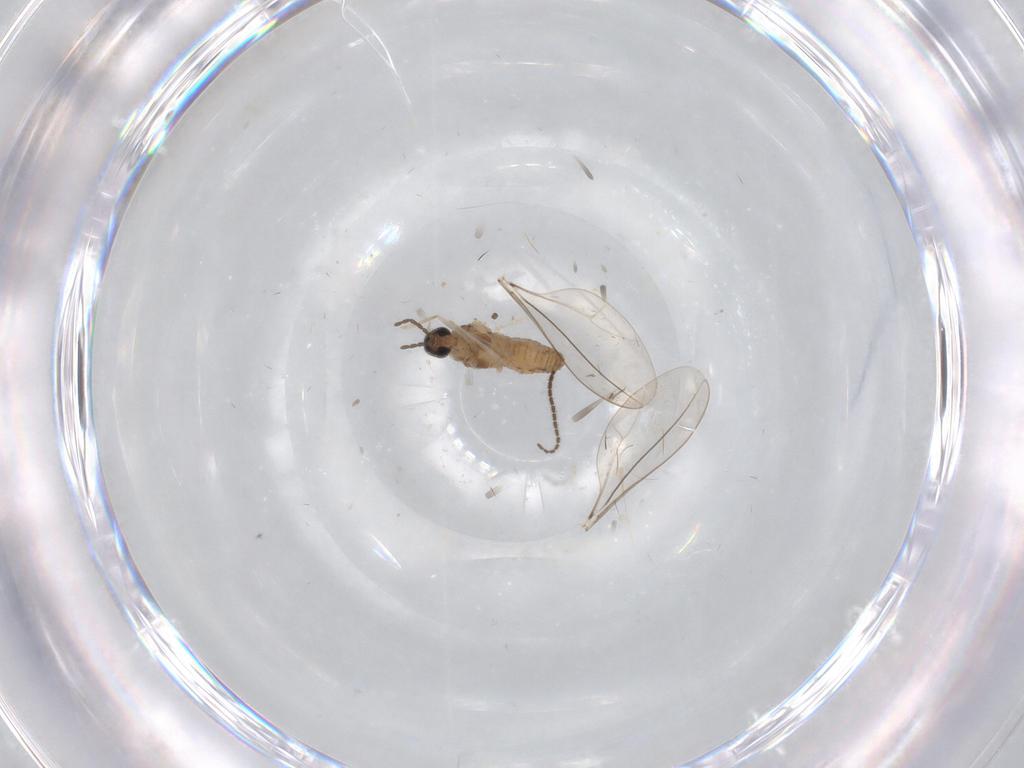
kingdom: Animalia
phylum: Arthropoda
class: Insecta
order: Diptera
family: Cecidomyiidae
